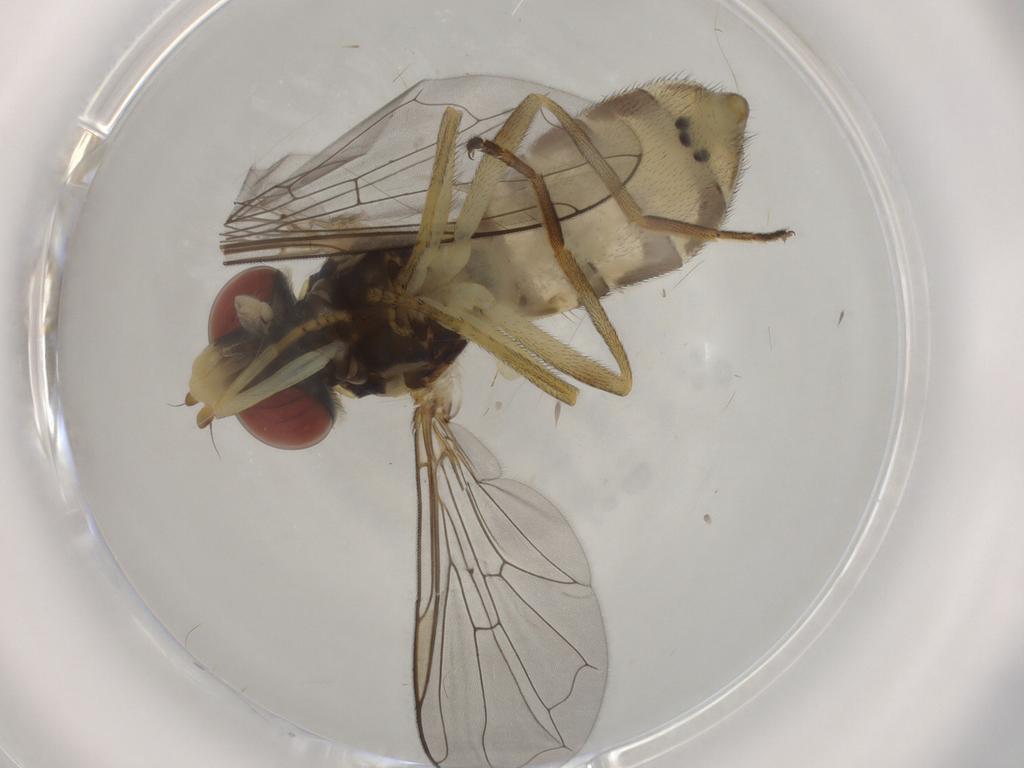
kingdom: Animalia
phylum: Arthropoda
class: Insecta
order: Diptera
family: Syrphidae
